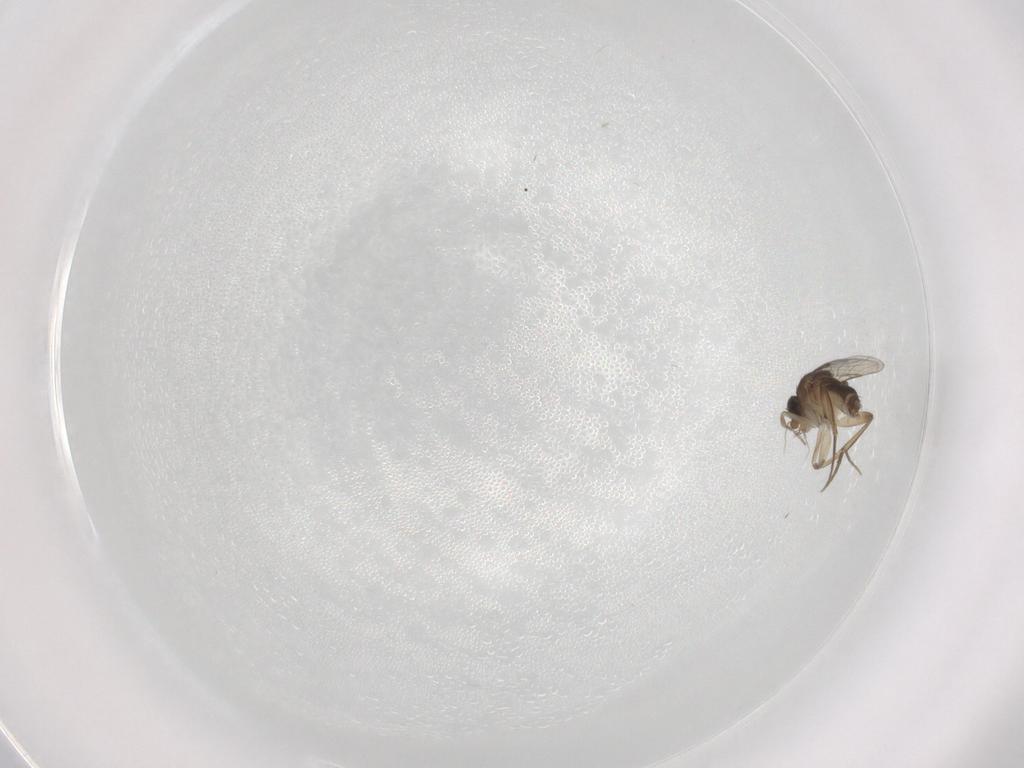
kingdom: Animalia
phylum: Arthropoda
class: Insecta
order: Diptera
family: Phoridae
